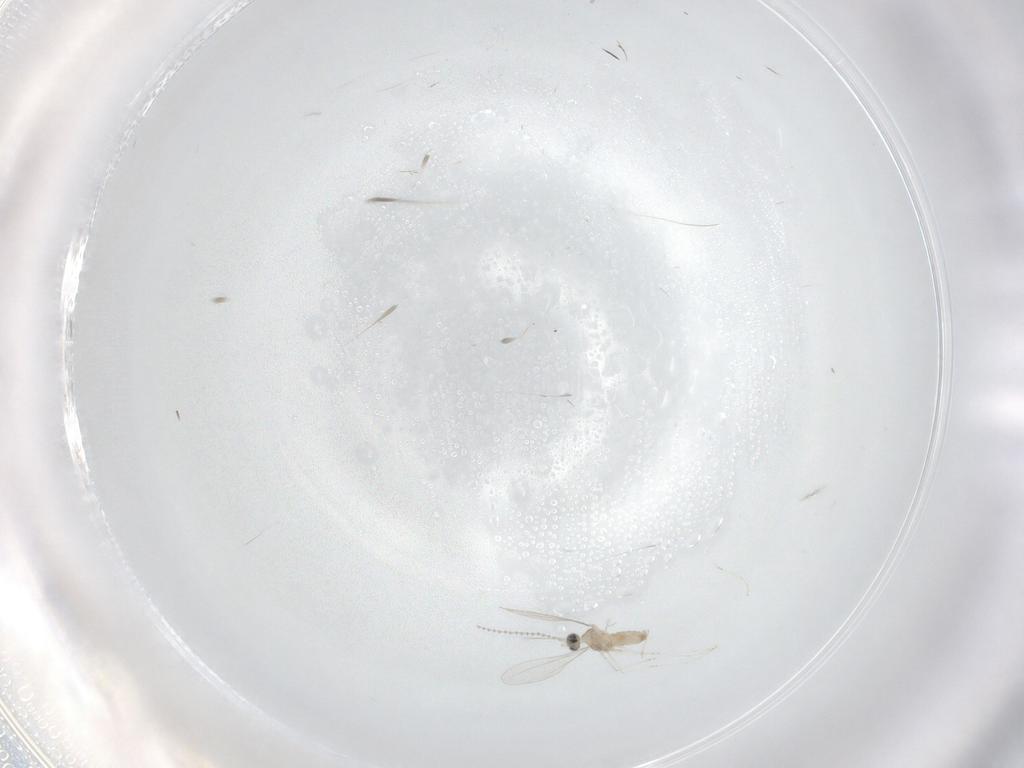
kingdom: Animalia
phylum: Arthropoda
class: Insecta
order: Diptera
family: Cecidomyiidae
